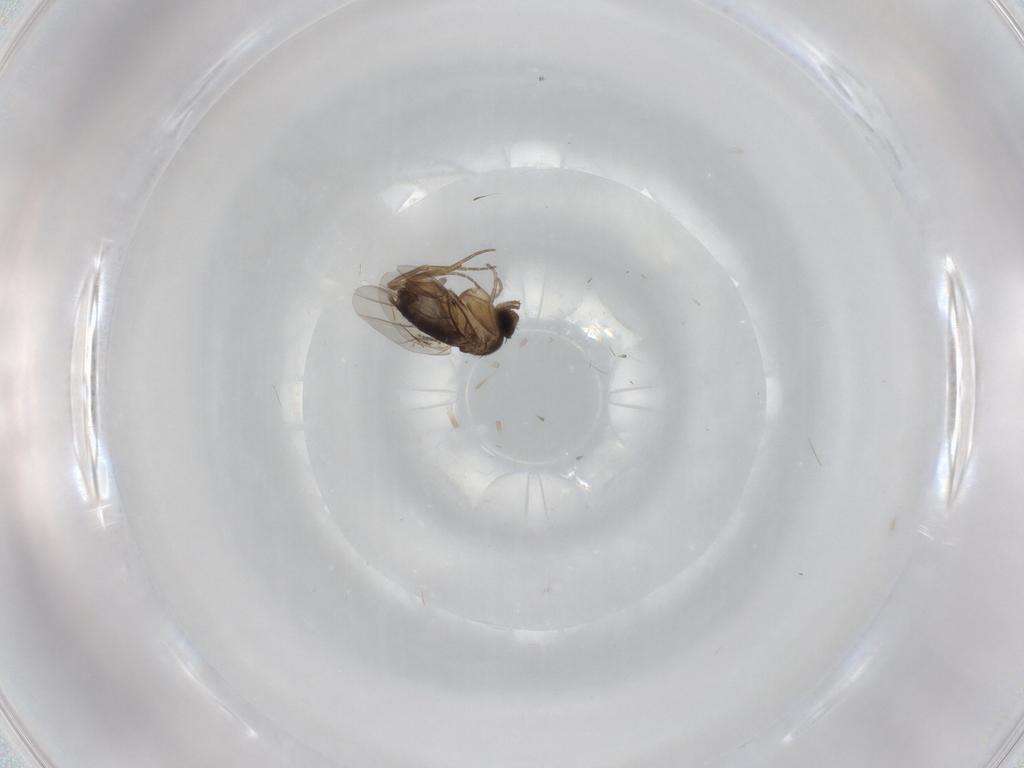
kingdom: Animalia
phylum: Arthropoda
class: Insecta
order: Diptera
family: Phoridae
